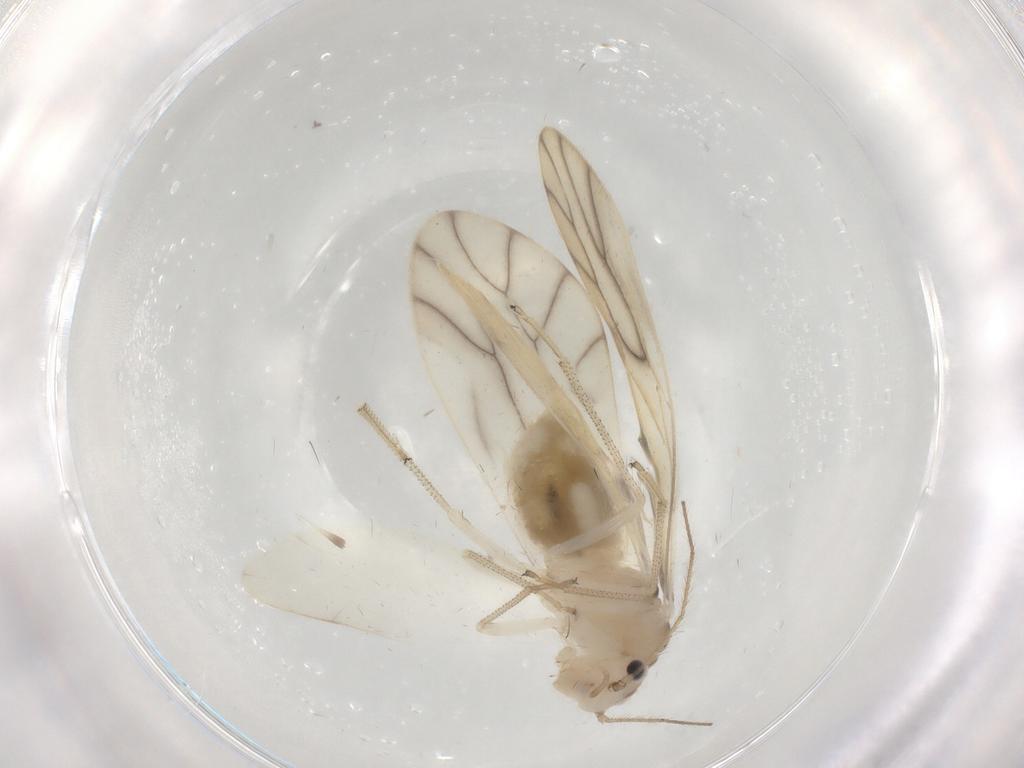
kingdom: Animalia
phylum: Arthropoda
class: Insecta
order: Psocodea
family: Caeciliusidae
